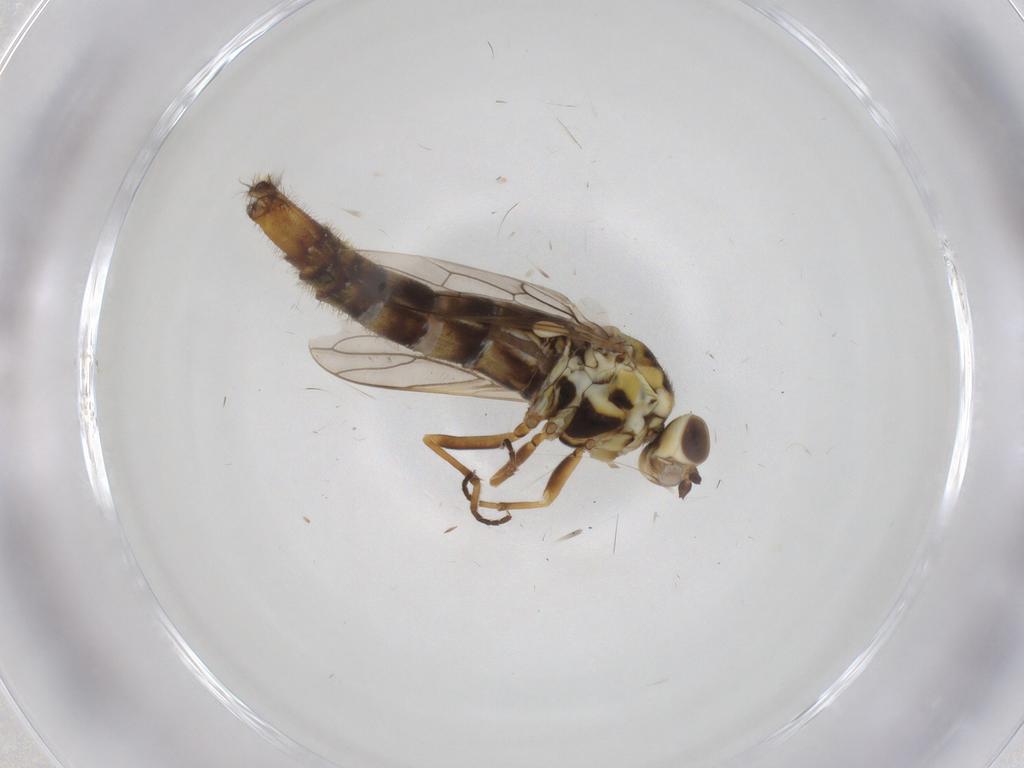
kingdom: Animalia
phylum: Arthropoda
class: Insecta
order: Diptera
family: Scenopinidae
